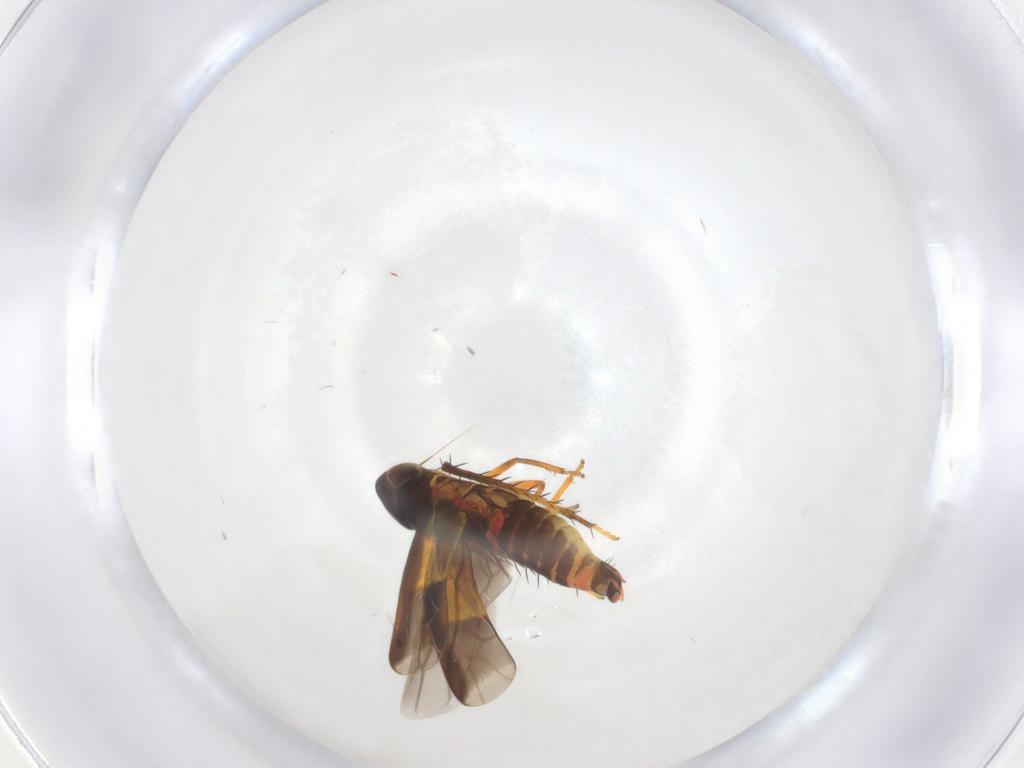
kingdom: Animalia
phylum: Arthropoda
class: Insecta
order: Hemiptera
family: Cicadellidae
